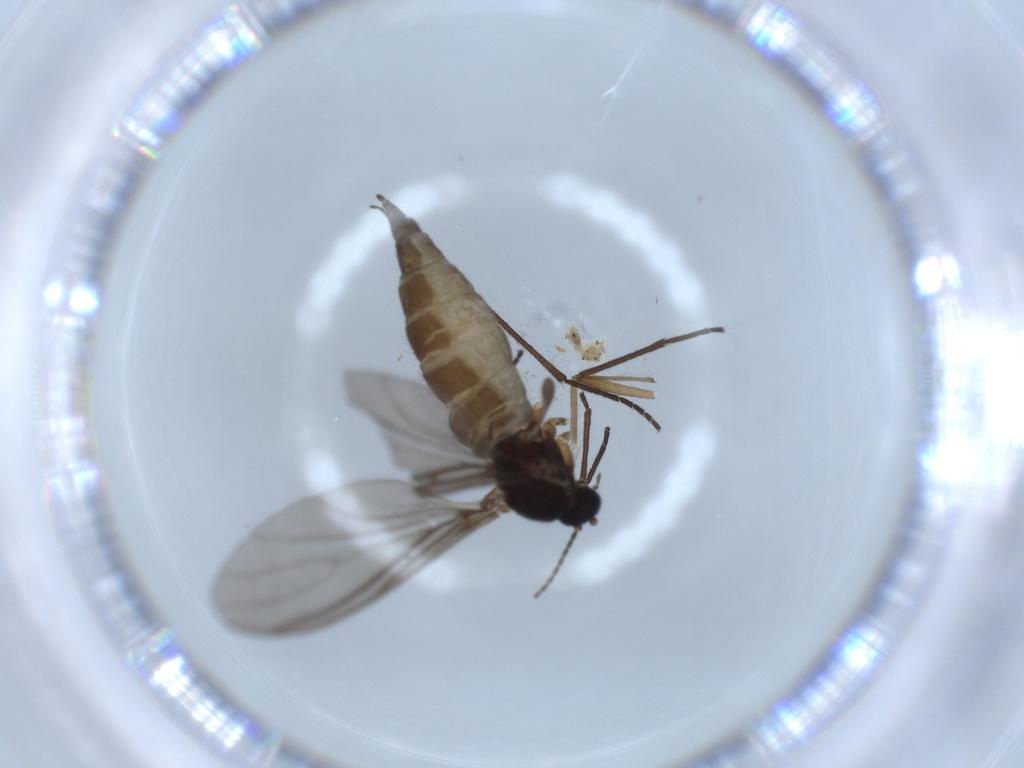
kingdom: Animalia
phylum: Arthropoda
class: Insecta
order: Diptera
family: Sciaridae
